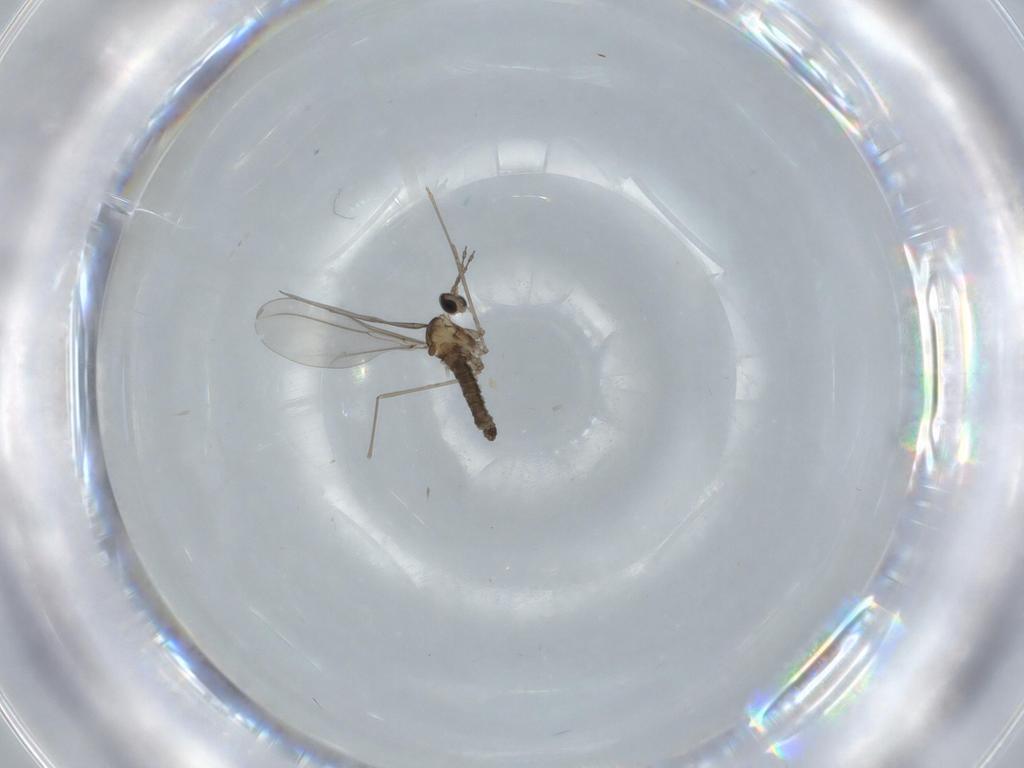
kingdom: Animalia
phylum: Arthropoda
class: Insecta
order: Diptera
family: Cecidomyiidae
